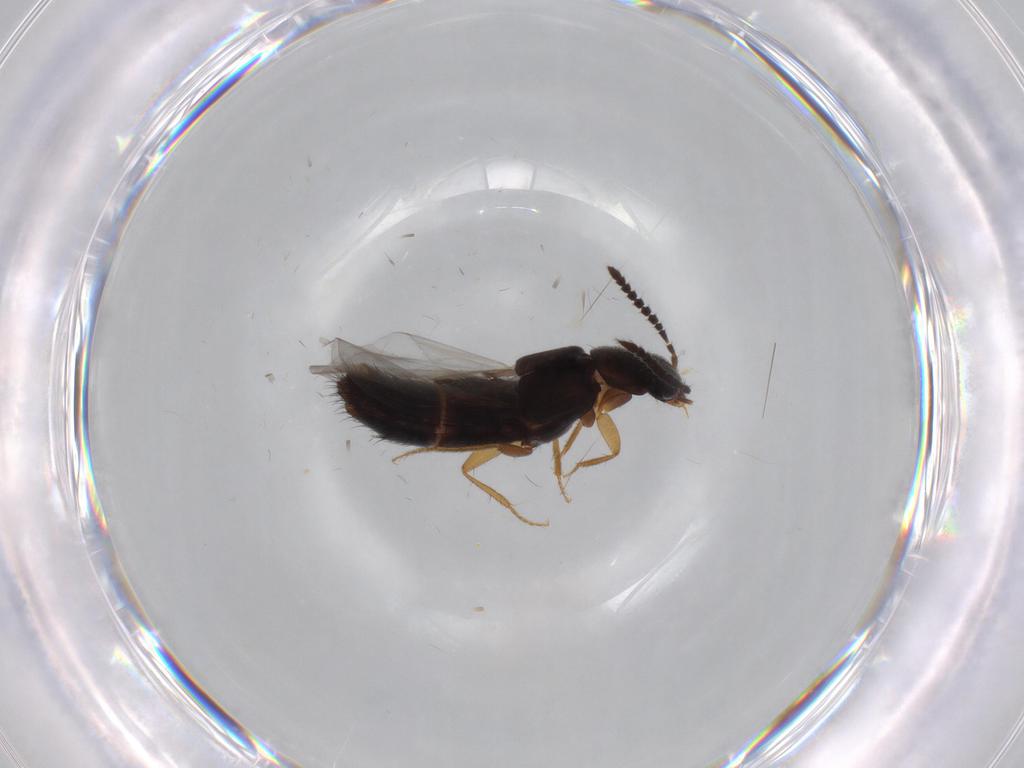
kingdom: Animalia
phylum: Arthropoda
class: Insecta
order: Coleoptera
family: Staphylinidae
